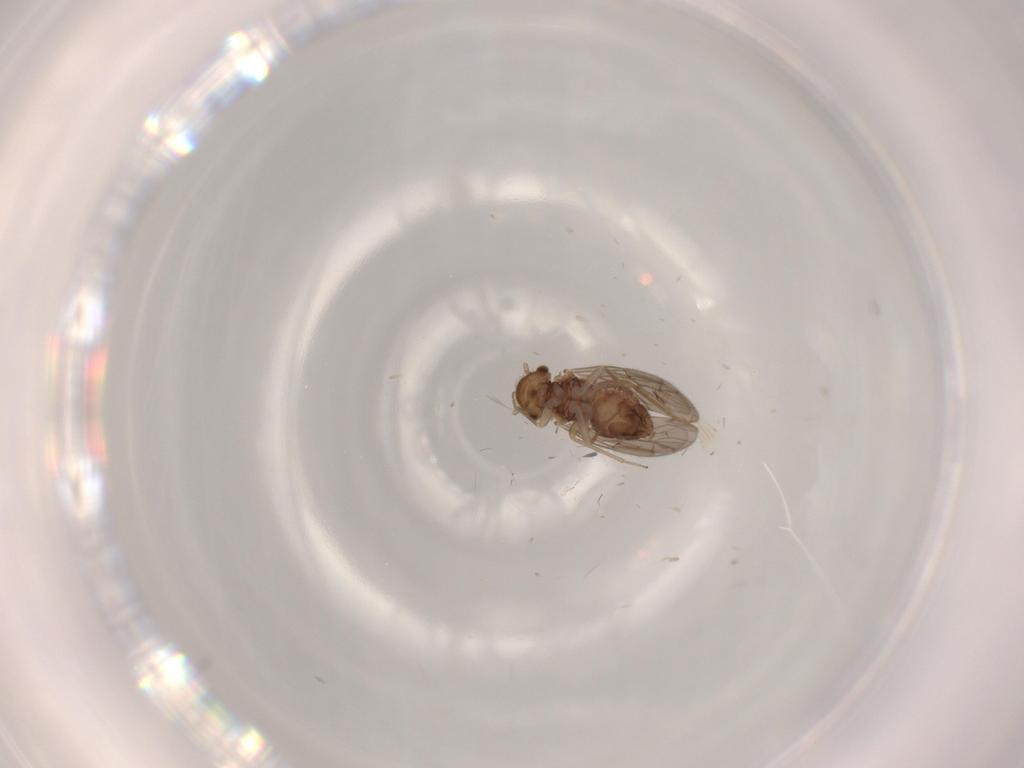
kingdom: Animalia
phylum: Arthropoda
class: Insecta
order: Psocodea
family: Ectopsocidae
